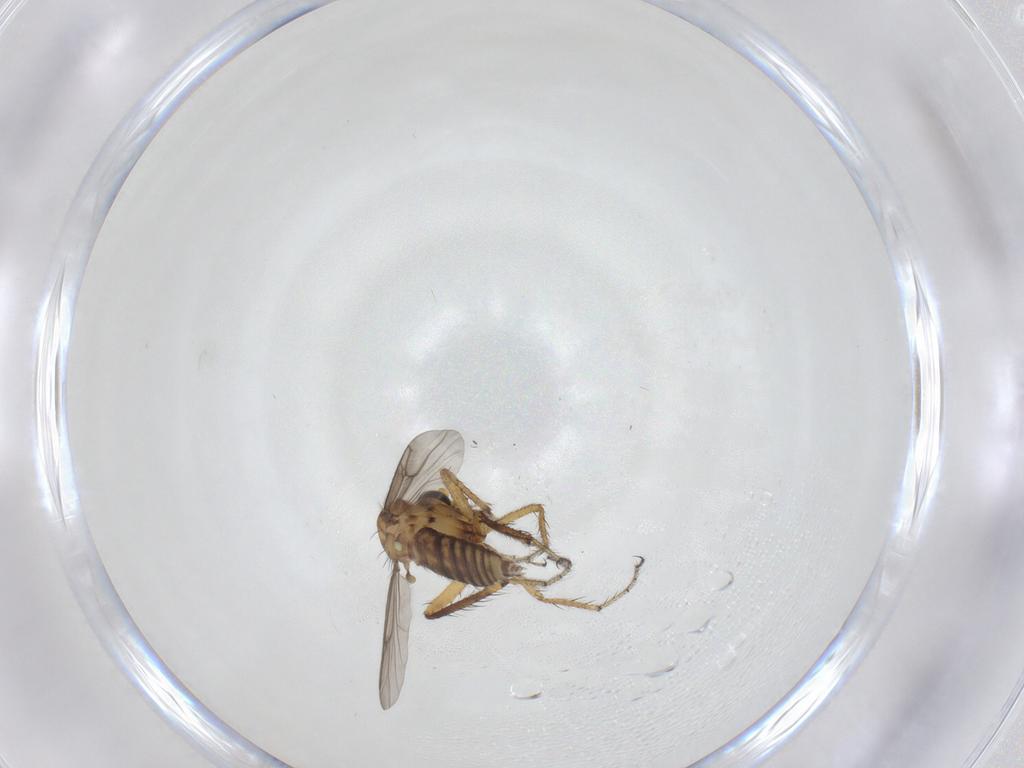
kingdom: Animalia
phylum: Arthropoda
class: Insecta
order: Diptera
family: Ceratopogonidae
